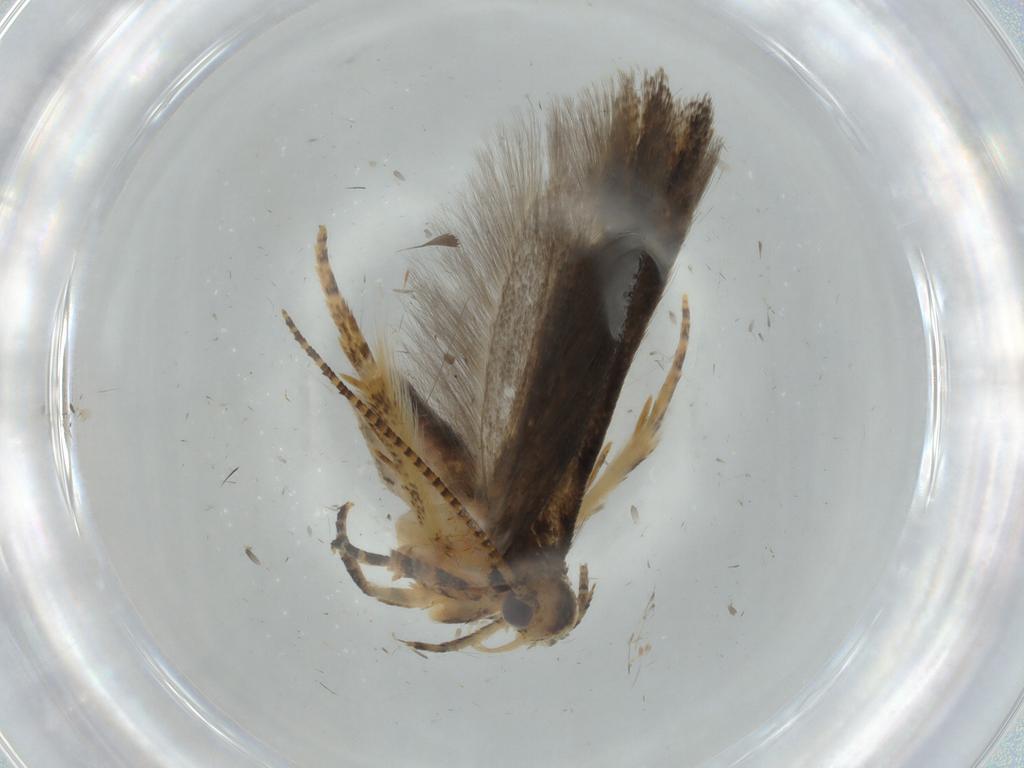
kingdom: Animalia
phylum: Arthropoda
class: Insecta
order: Lepidoptera
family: Gelechiidae
